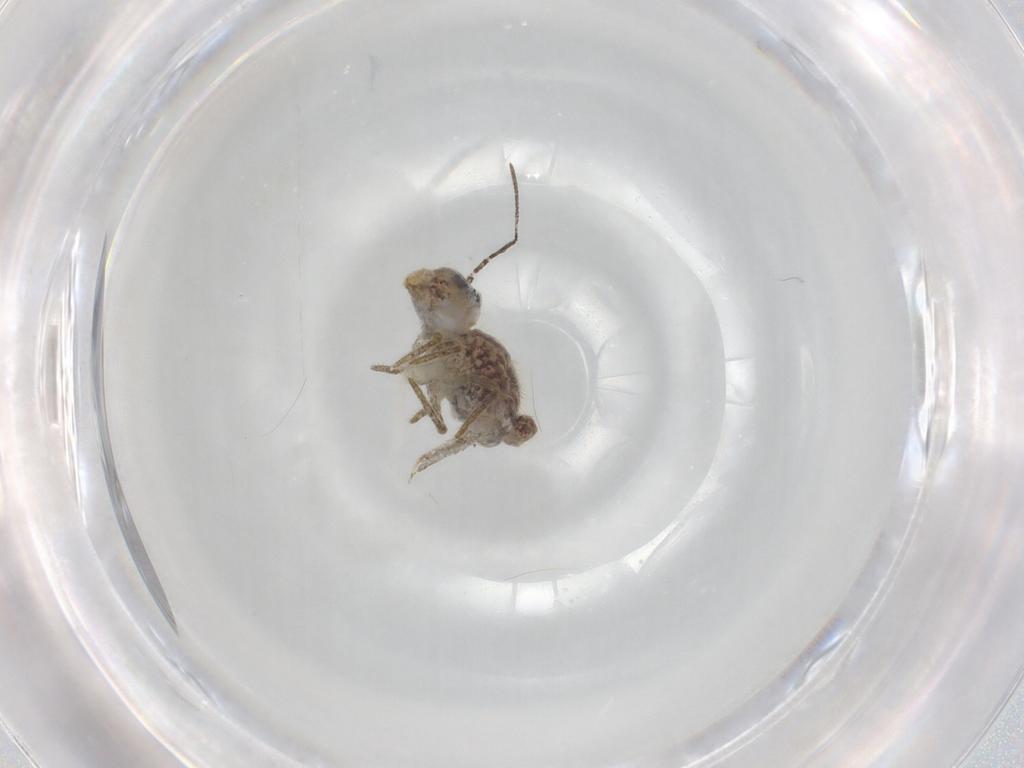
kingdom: Animalia
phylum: Arthropoda
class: Collembola
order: Symphypleona
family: Sminthuridae
